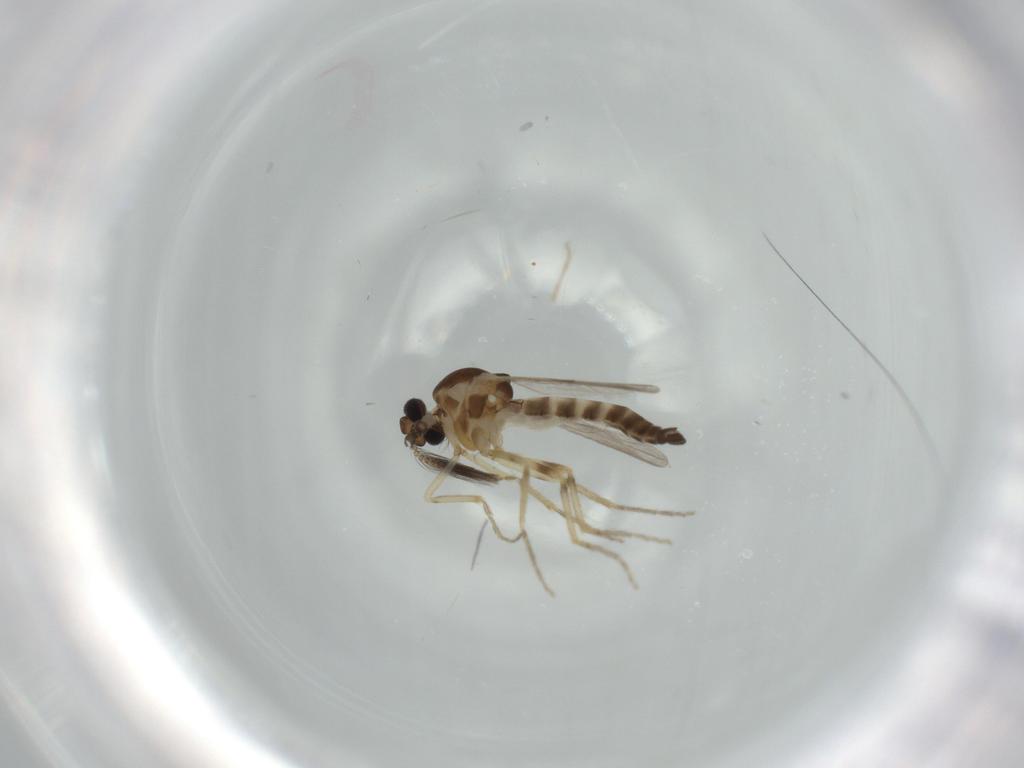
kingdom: Animalia
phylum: Arthropoda
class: Insecta
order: Diptera
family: Ceratopogonidae
